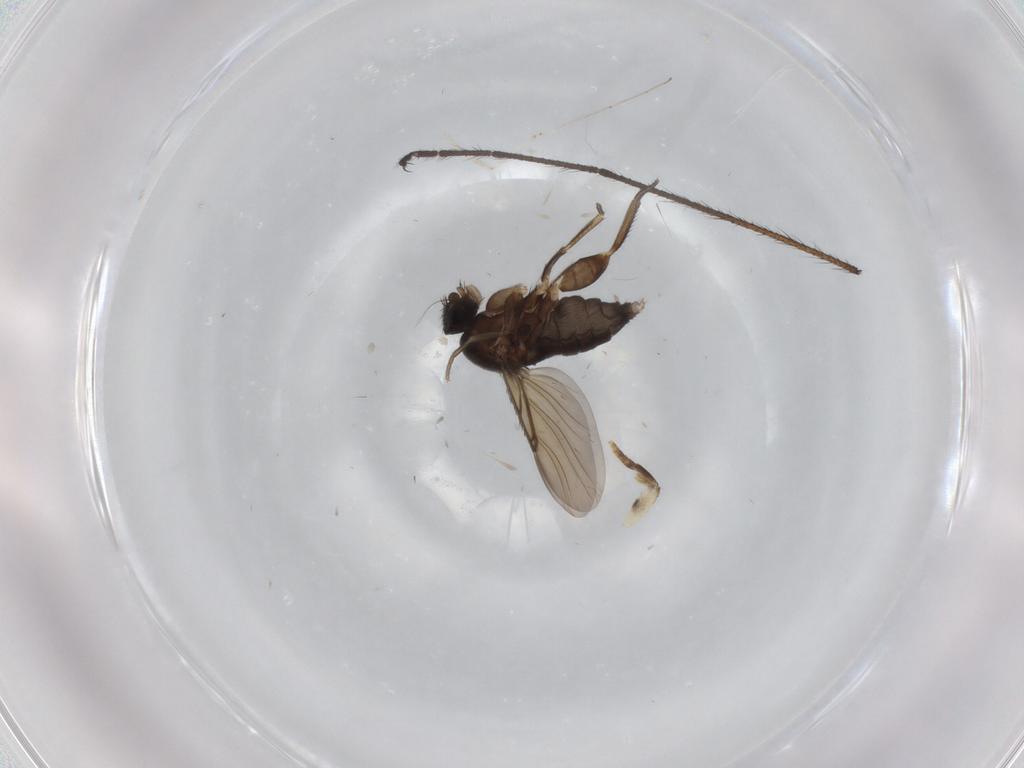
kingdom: Animalia
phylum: Arthropoda
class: Insecta
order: Diptera
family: Phoridae
